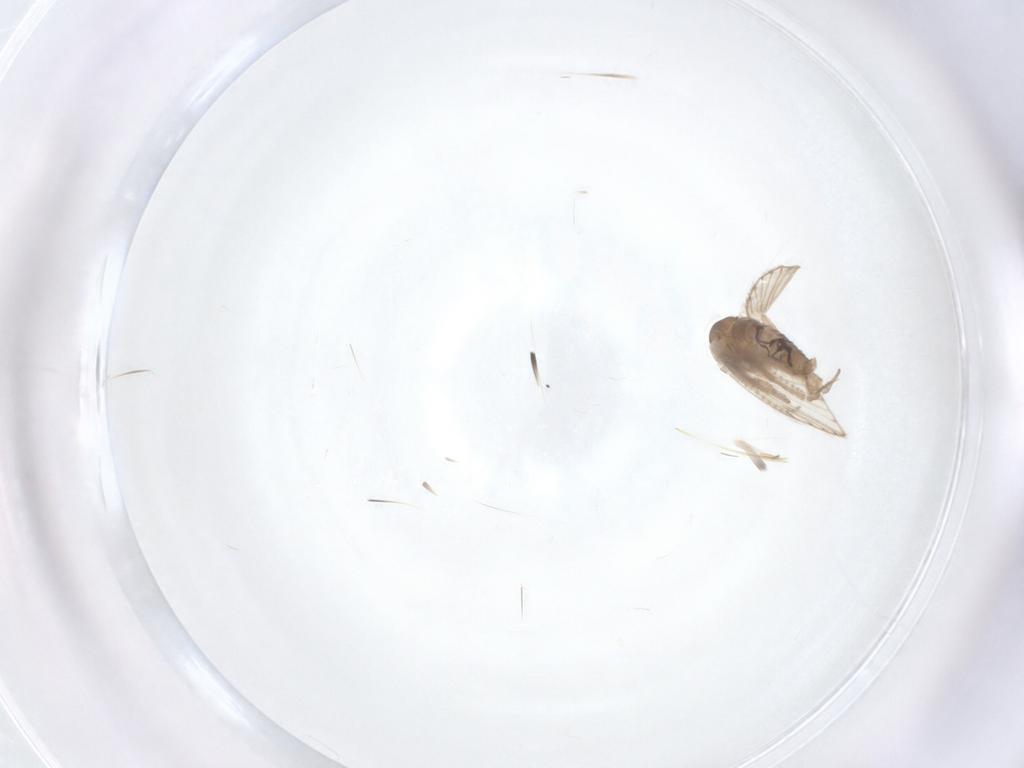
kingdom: Animalia
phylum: Arthropoda
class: Insecta
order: Diptera
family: Psychodidae
